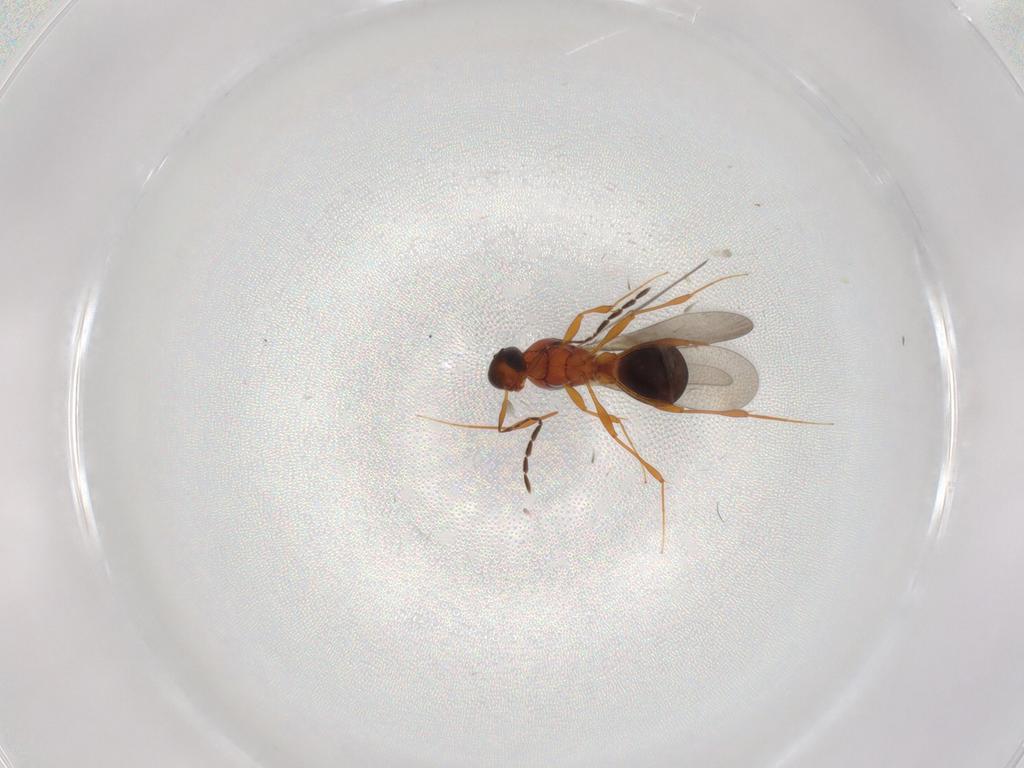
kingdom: Animalia
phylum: Arthropoda
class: Insecta
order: Hymenoptera
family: Platygastridae
